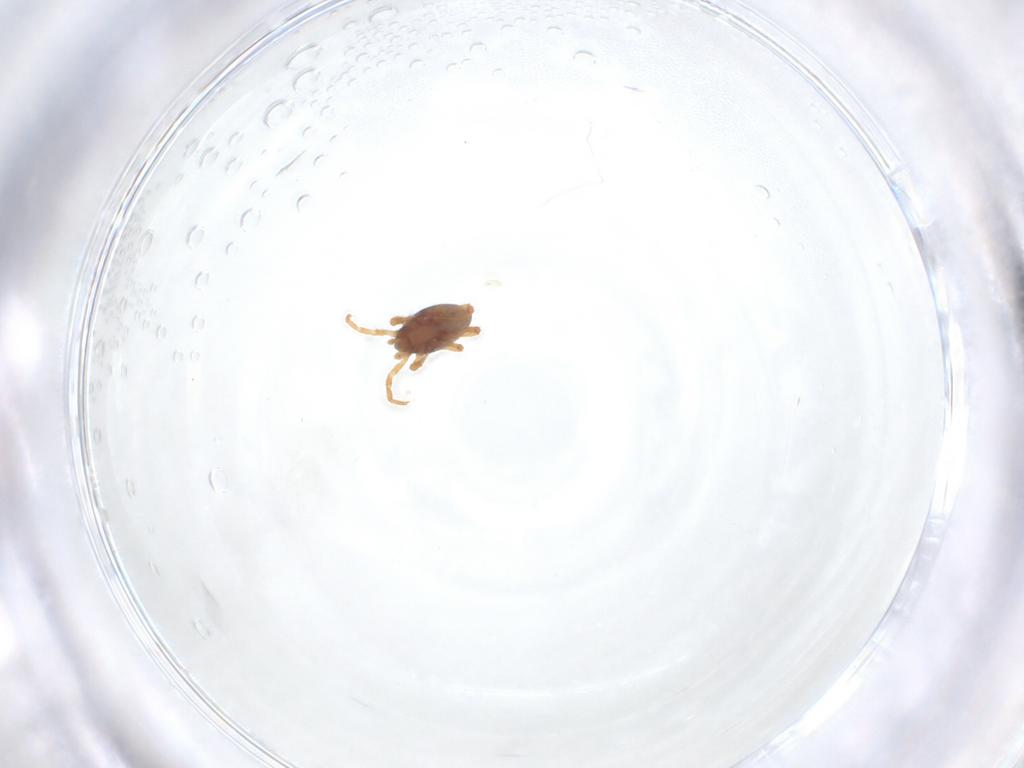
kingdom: Animalia
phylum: Arthropoda
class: Arachnida
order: Mesostigmata
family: Parasitidae
